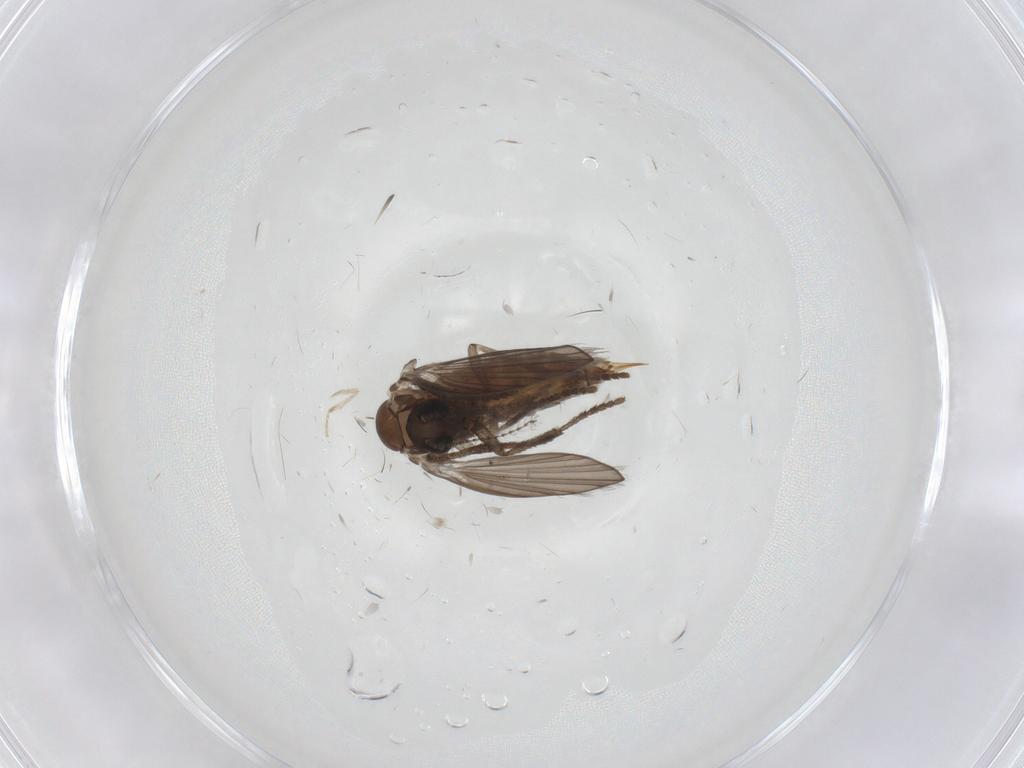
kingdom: Animalia
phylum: Arthropoda
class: Insecta
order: Diptera
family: Psychodidae
